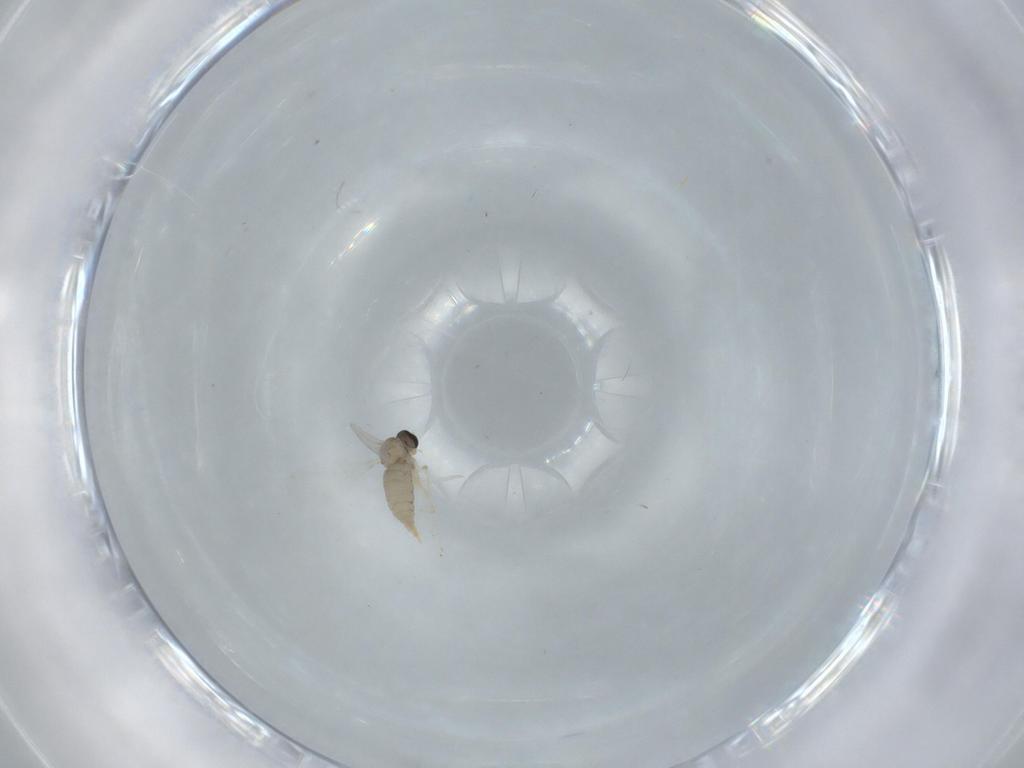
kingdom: Animalia
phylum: Arthropoda
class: Insecta
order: Diptera
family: Cecidomyiidae
